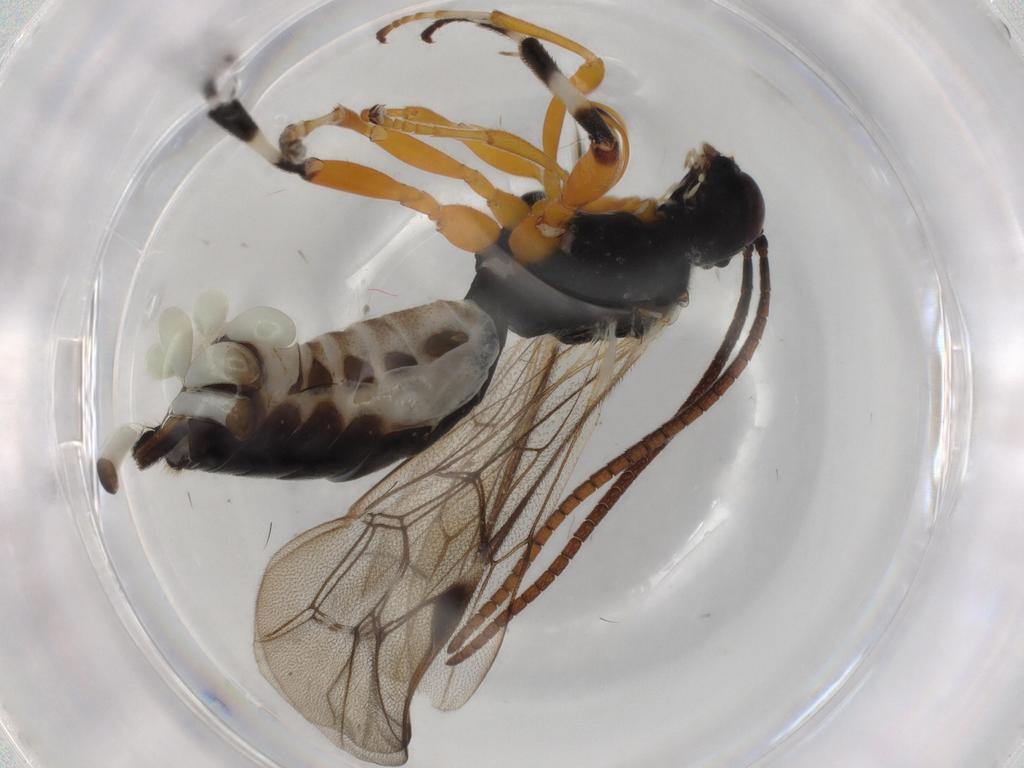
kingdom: Animalia
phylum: Arthropoda
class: Insecta
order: Hymenoptera
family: Ichneumonidae
